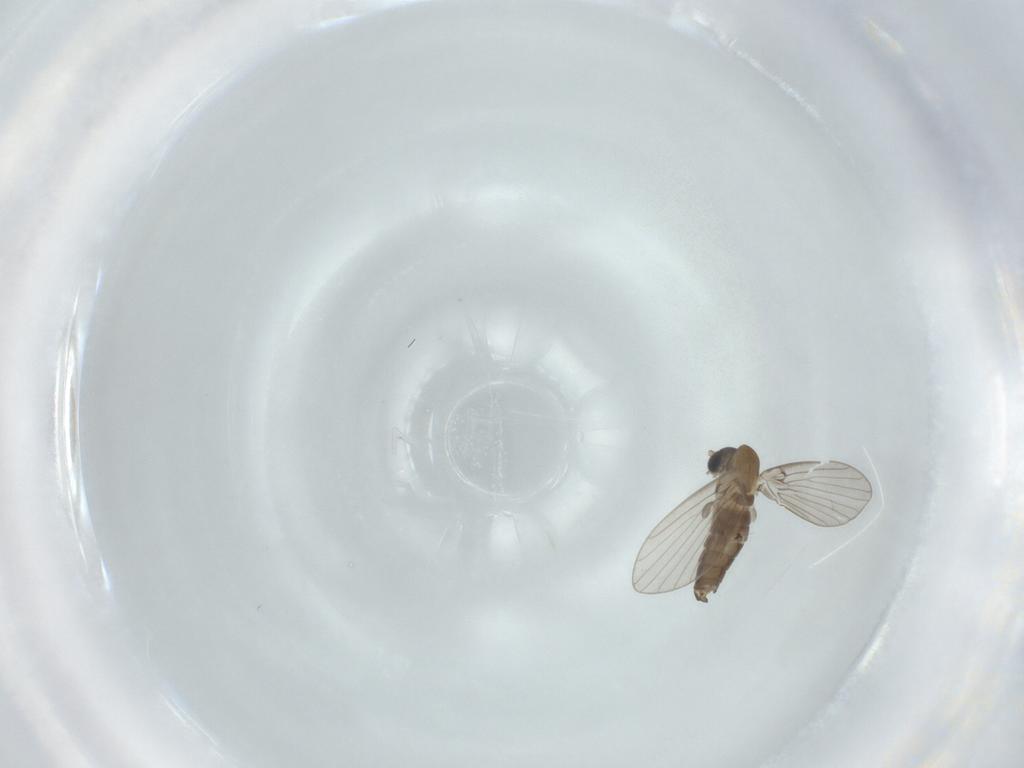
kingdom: Animalia
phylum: Arthropoda
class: Insecta
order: Diptera
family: Psychodidae
